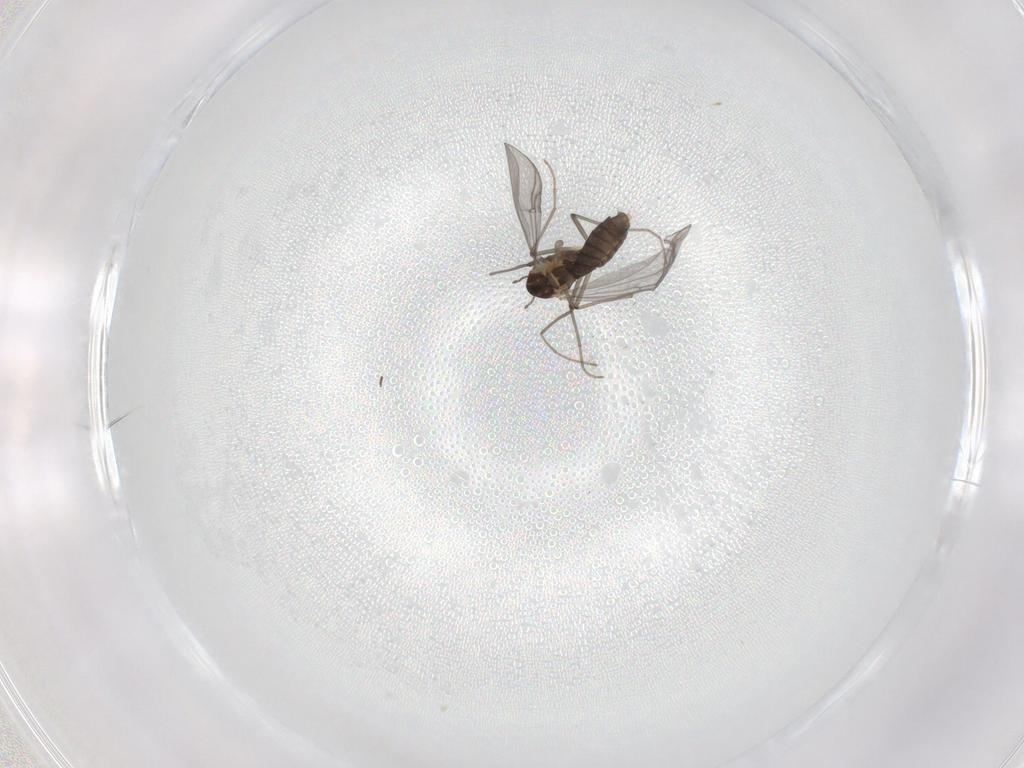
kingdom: Animalia
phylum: Arthropoda
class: Insecta
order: Diptera
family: Chironomidae
